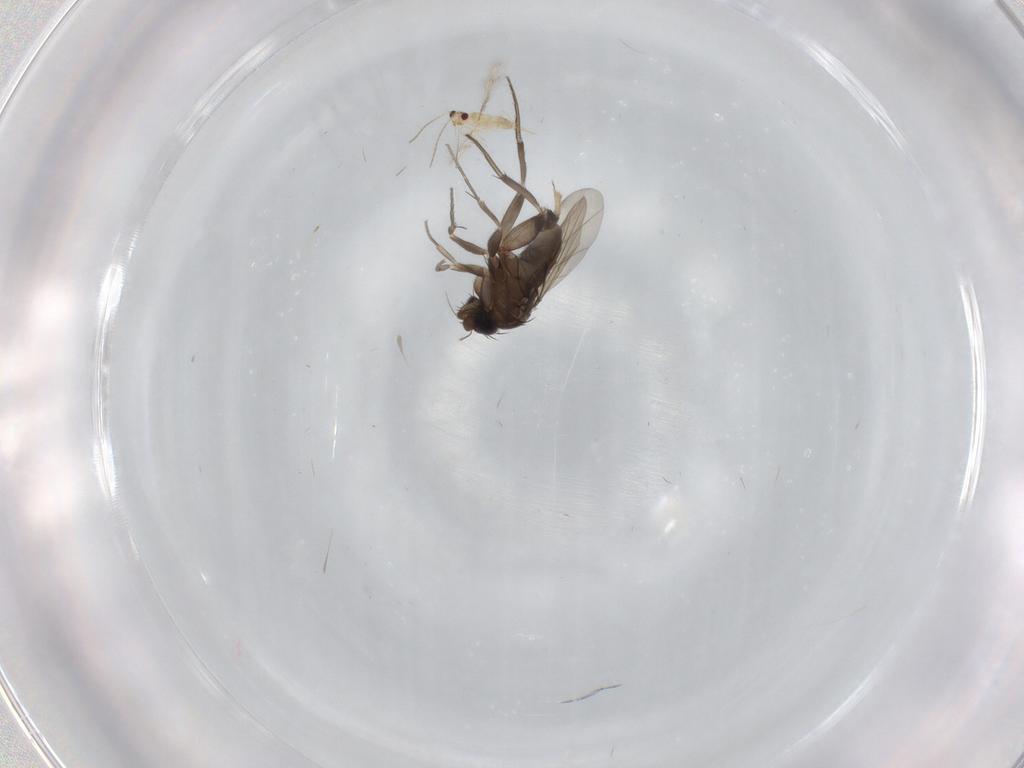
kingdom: Animalia
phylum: Arthropoda
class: Insecta
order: Diptera
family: Phoridae
